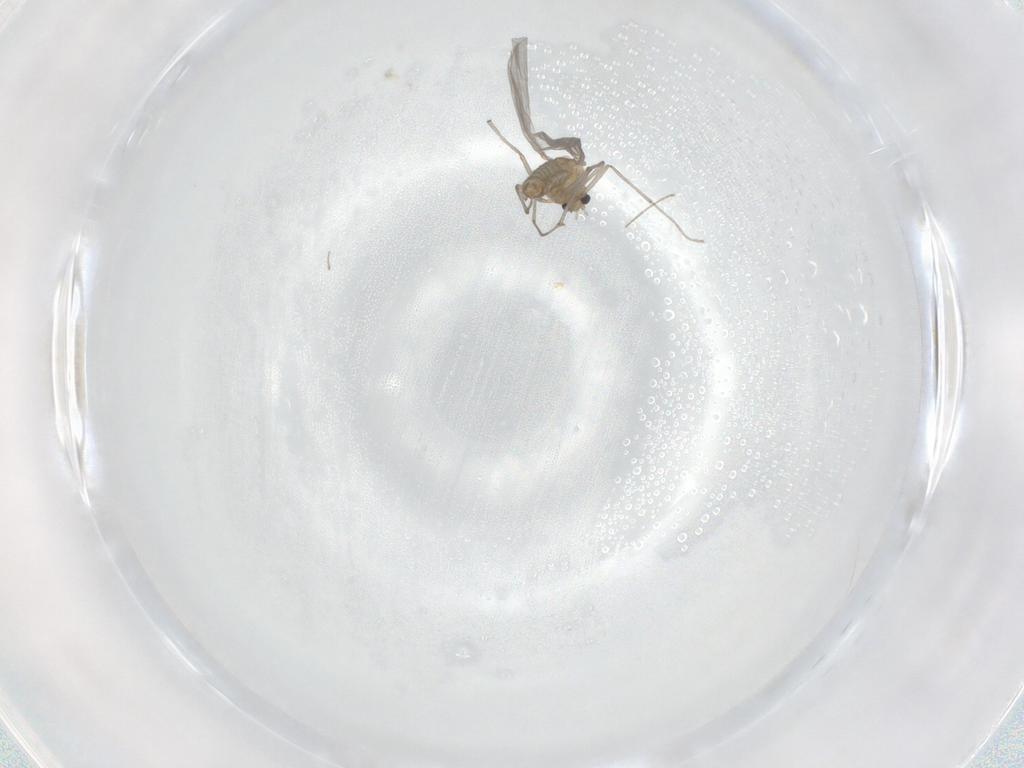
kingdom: Animalia
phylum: Arthropoda
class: Insecta
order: Diptera
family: Chironomidae
